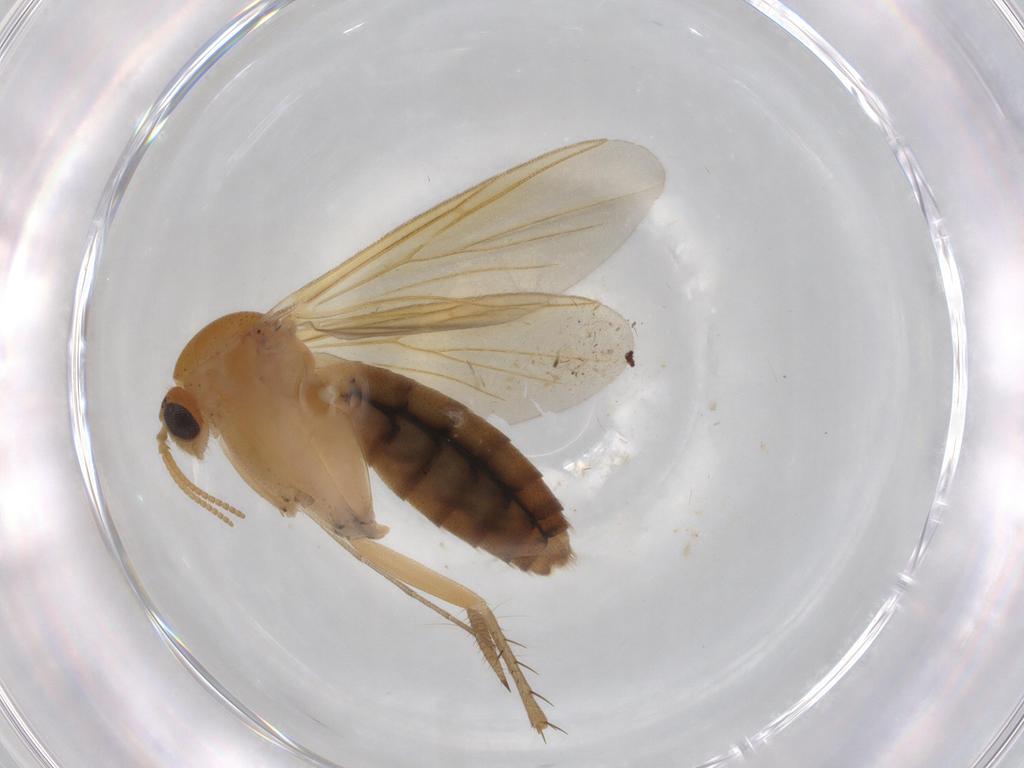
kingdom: Animalia
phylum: Arthropoda
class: Insecta
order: Diptera
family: Mycetophilidae
